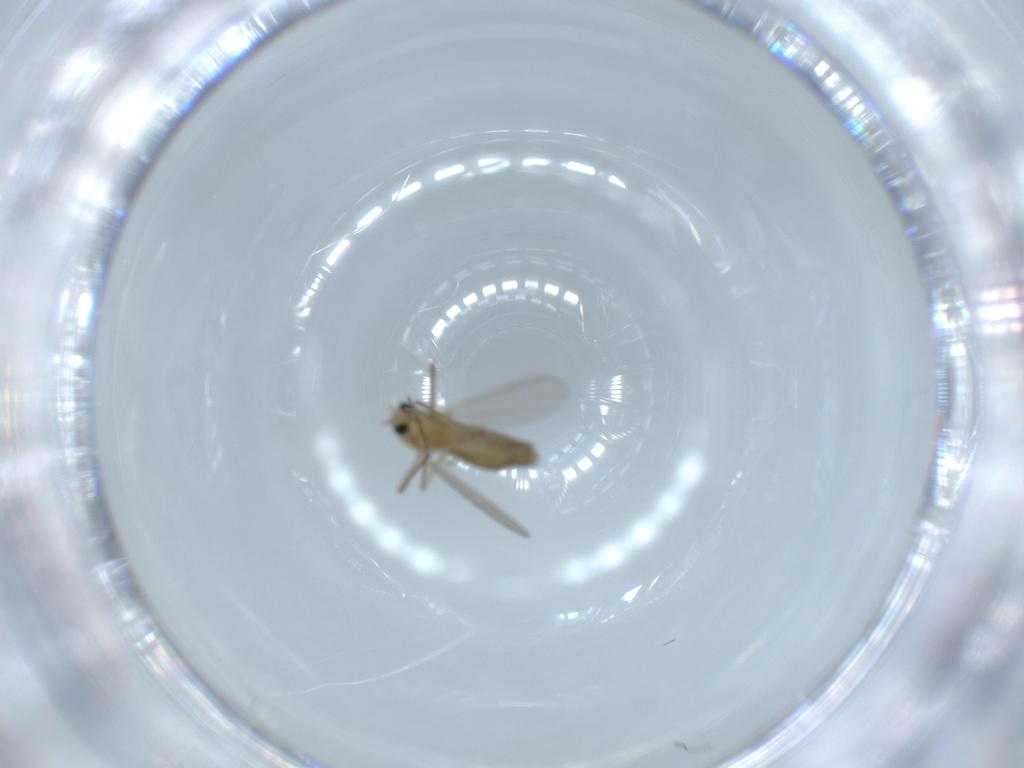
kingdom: Animalia
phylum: Arthropoda
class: Insecta
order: Diptera
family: Chironomidae
